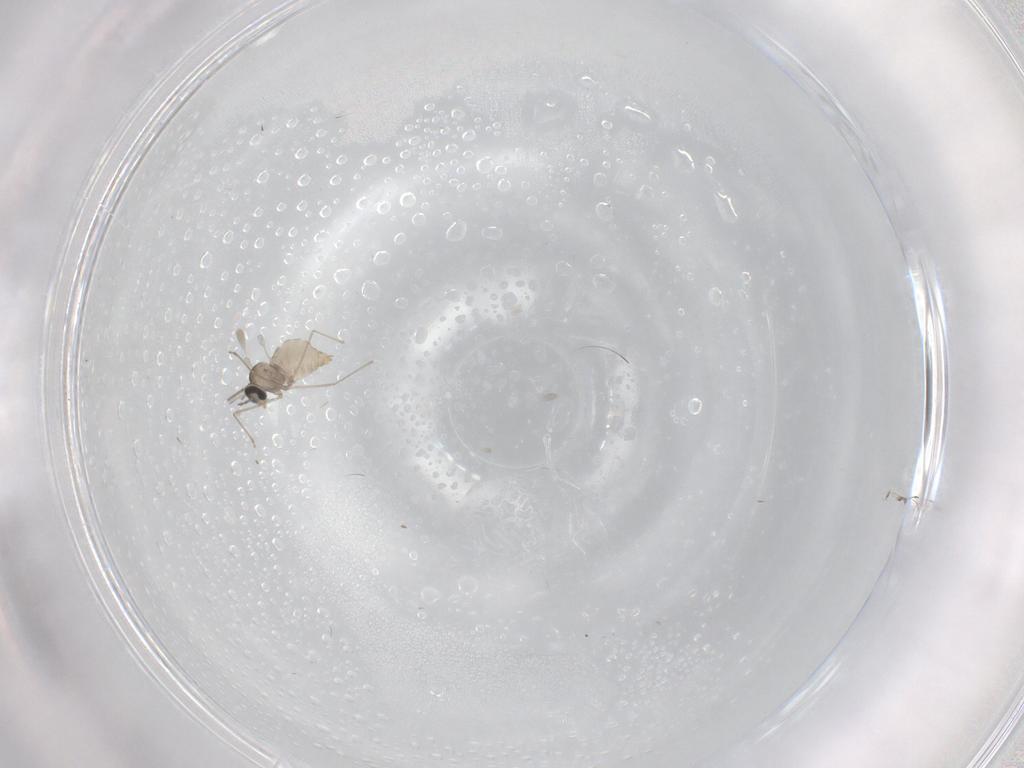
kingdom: Animalia
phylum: Arthropoda
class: Insecta
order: Diptera
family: Cecidomyiidae
